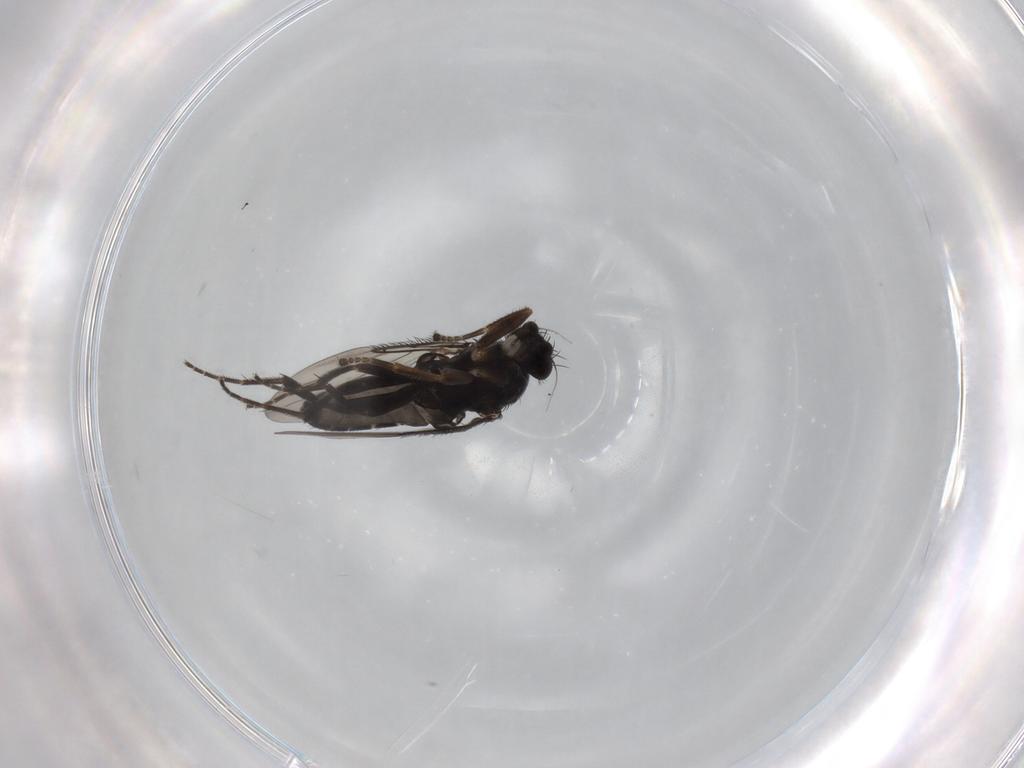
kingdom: Animalia
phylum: Arthropoda
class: Insecta
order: Diptera
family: Phoridae
